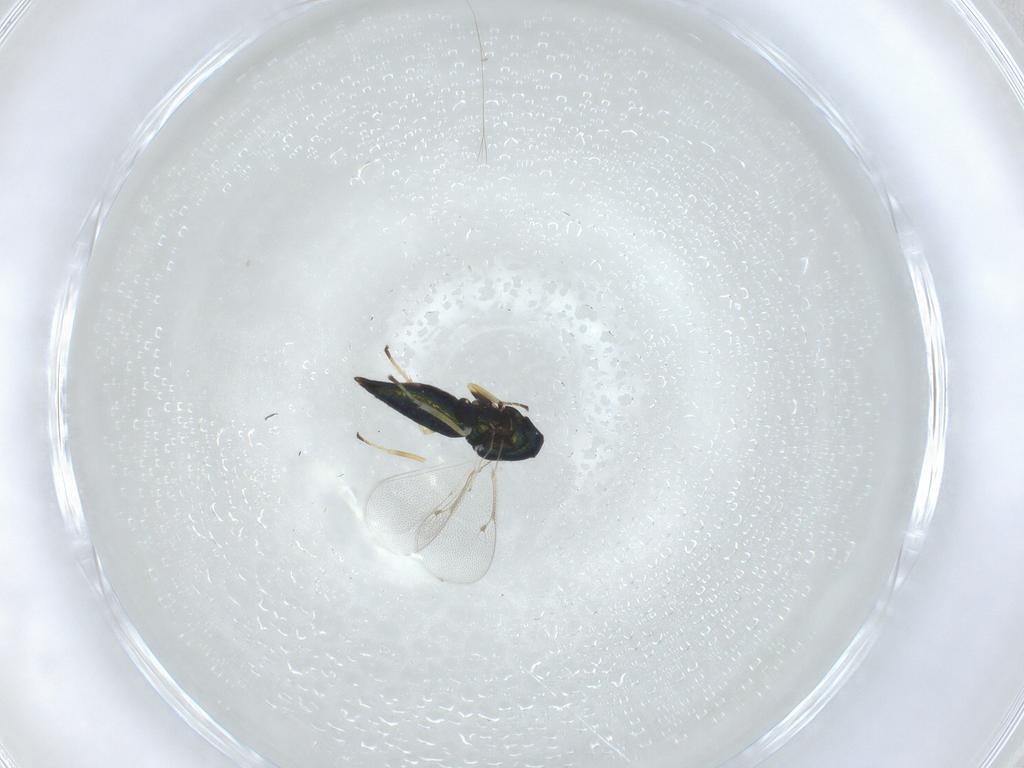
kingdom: Animalia
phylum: Arthropoda
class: Insecta
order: Hymenoptera
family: Eulophidae
